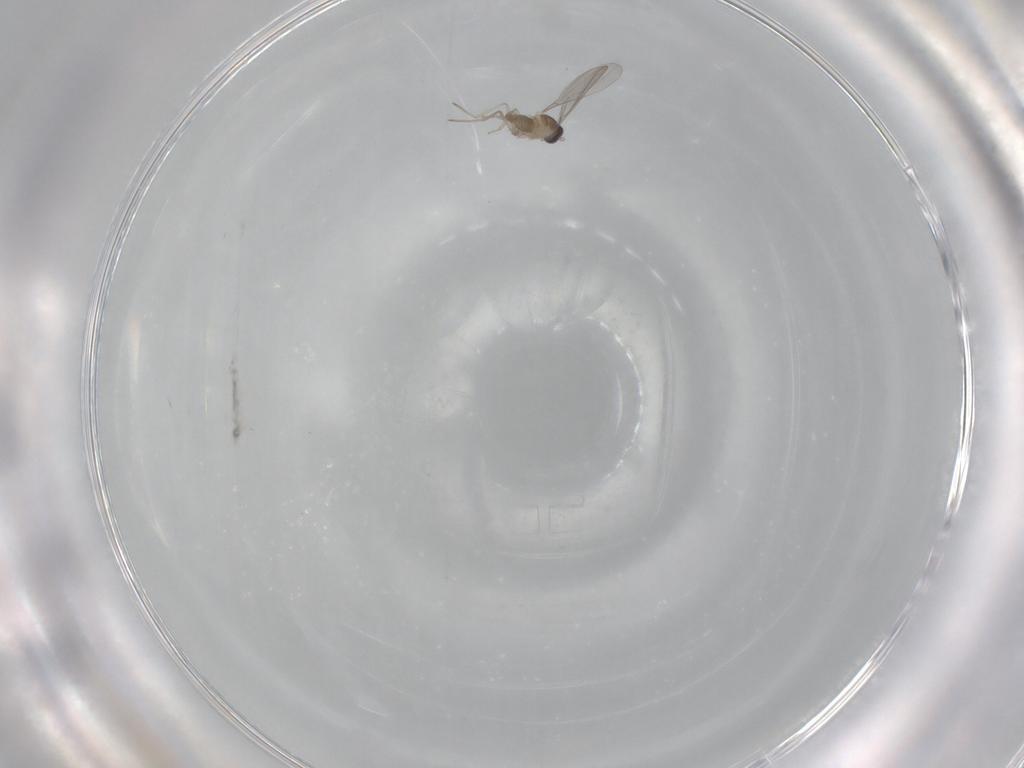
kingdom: Animalia
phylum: Arthropoda
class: Insecta
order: Diptera
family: Cecidomyiidae
